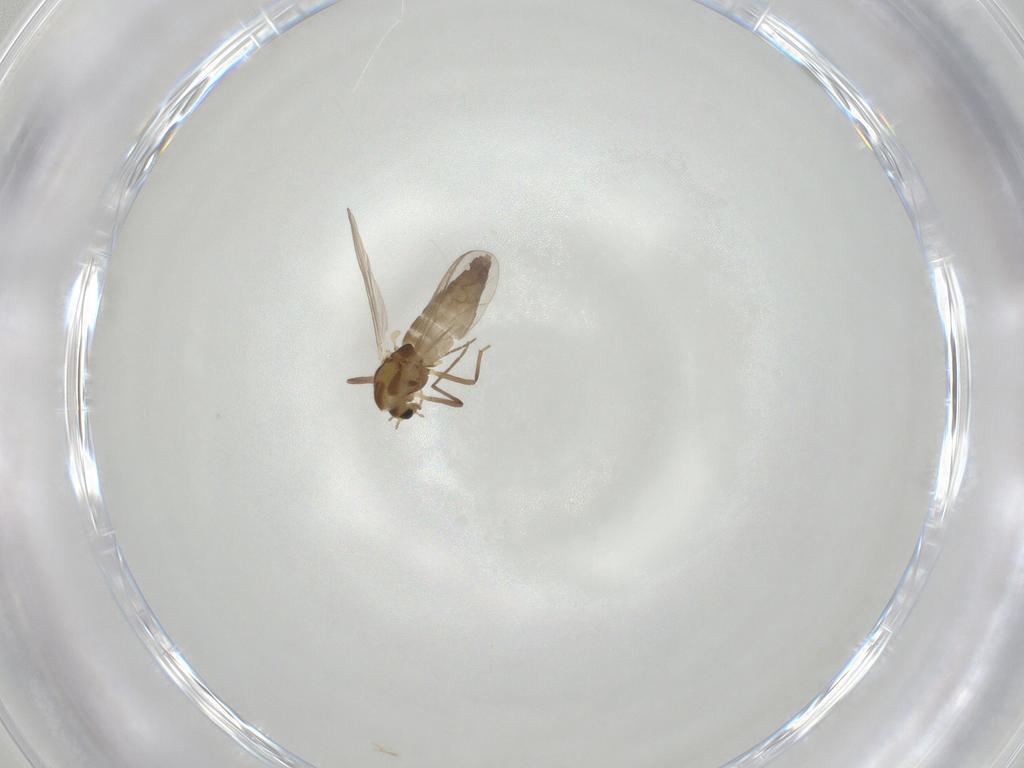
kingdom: Animalia
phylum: Arthropoda
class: Insecta
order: Diptera
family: Chironomidae
